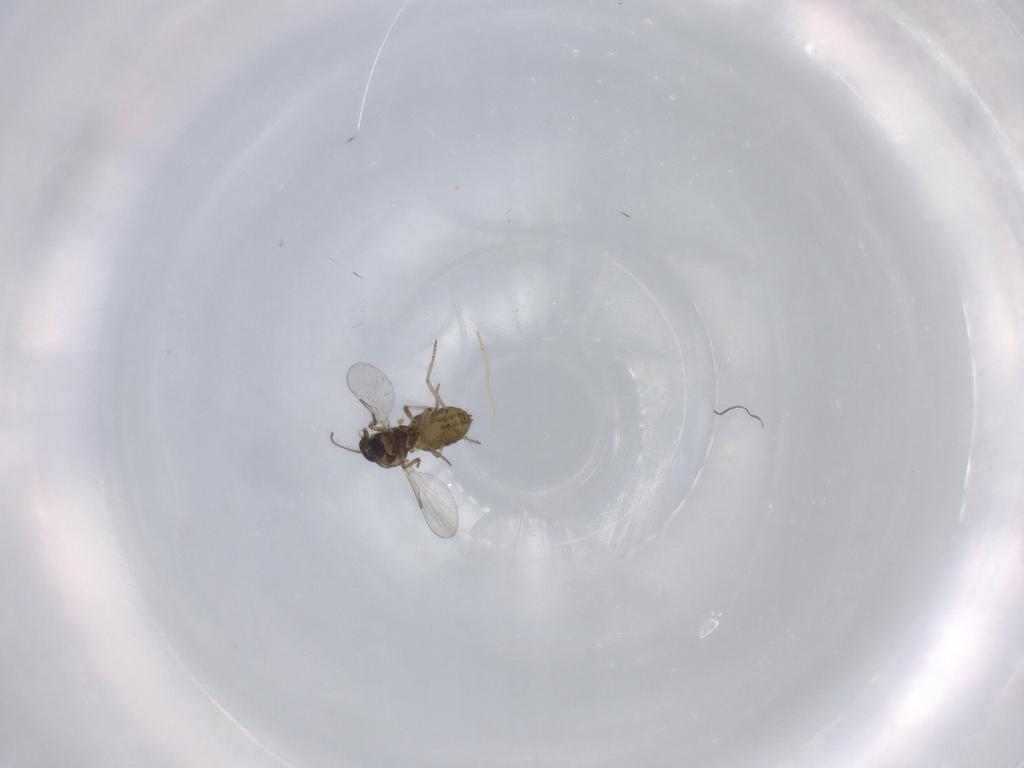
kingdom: Animalia
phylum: Arthropoda
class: Insecta
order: Diptera
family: Ceratopogonidae
